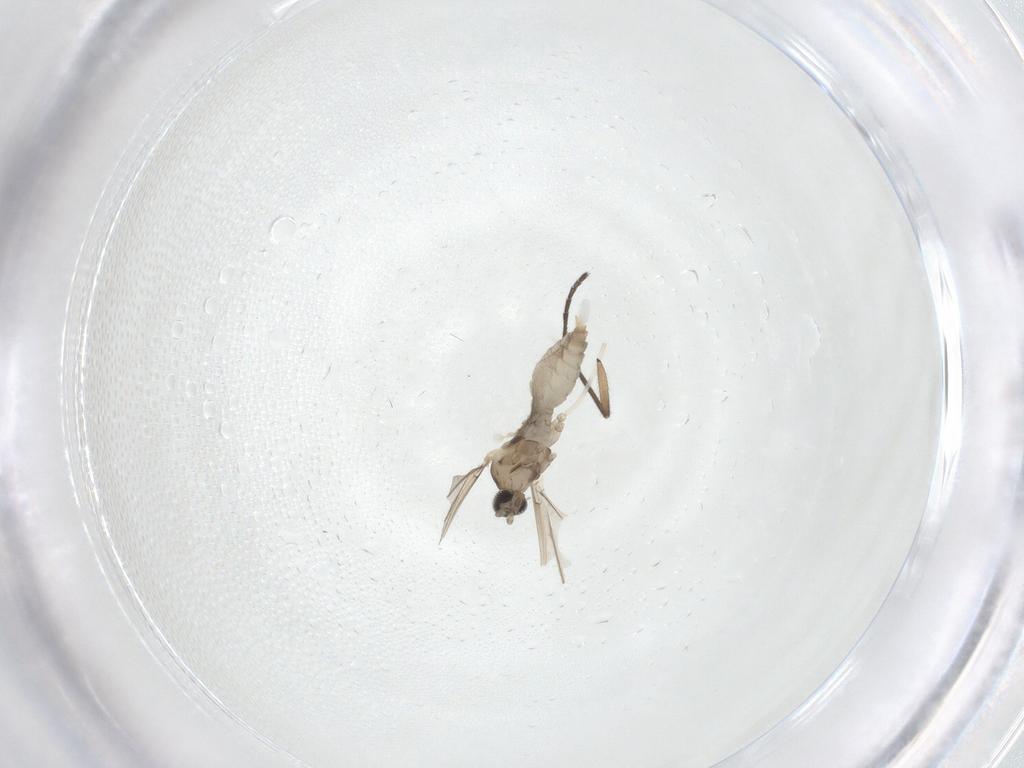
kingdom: Animalia
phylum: Arthropoda
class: Insecta
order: Diptera
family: Cecidomyiidae
